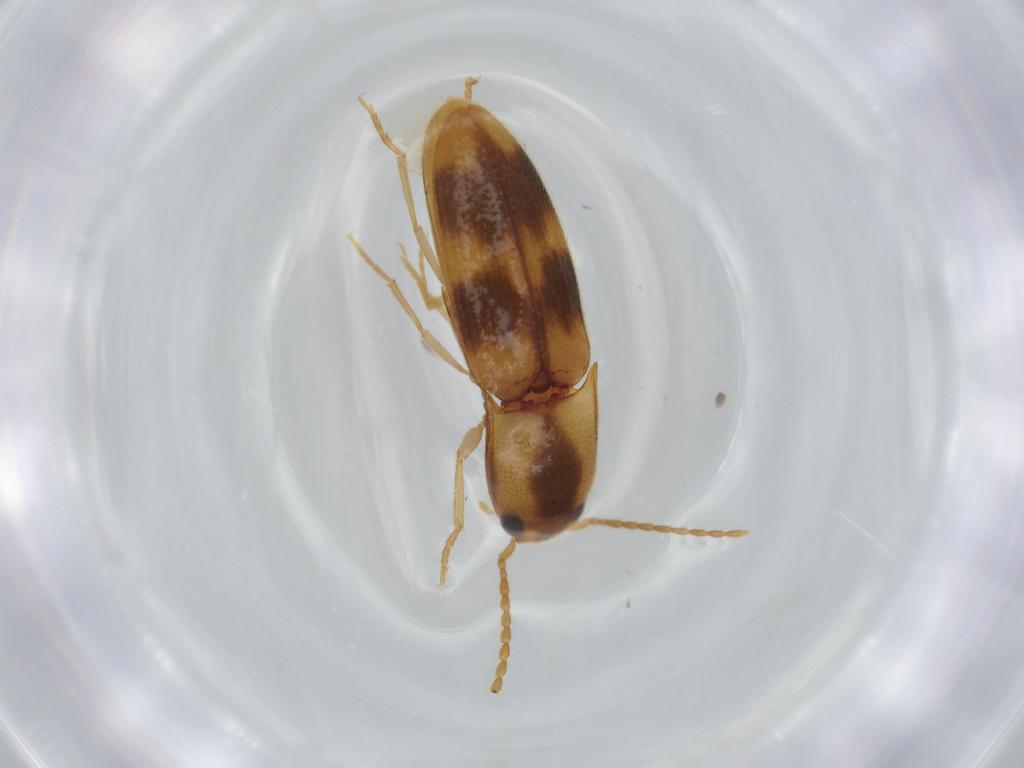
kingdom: Animalia
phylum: Arthropoda
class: Insecta
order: Coleoptera
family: Elateridae
